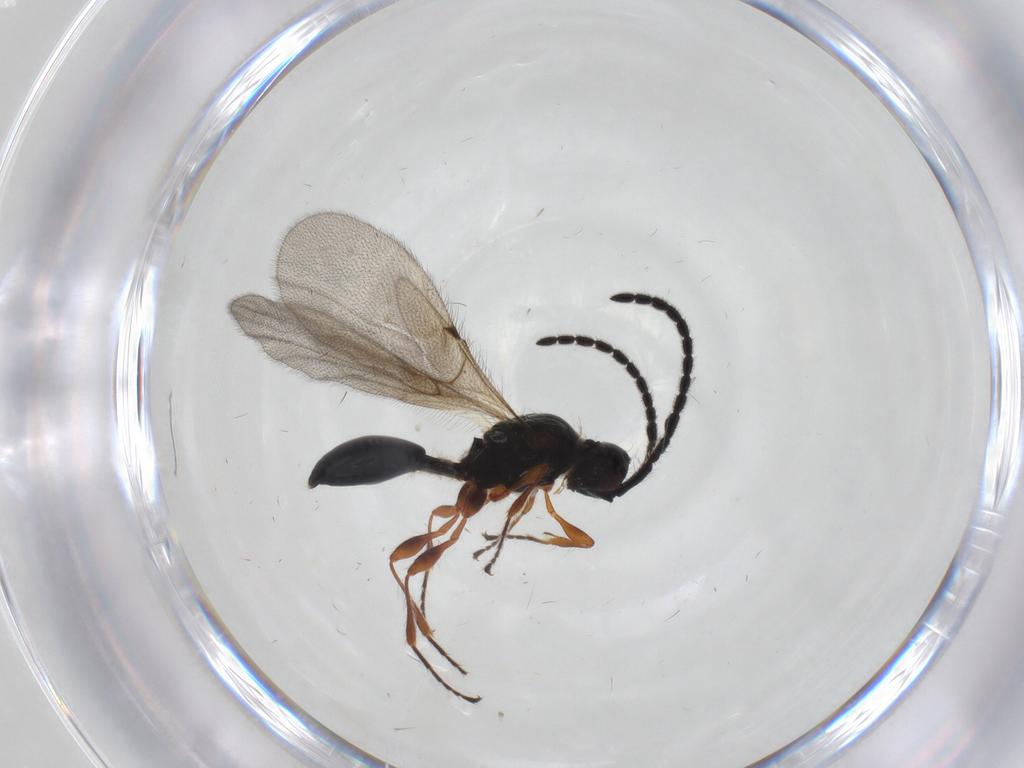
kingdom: Animalia
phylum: Arthropoda
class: Insecta
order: Hymenoptera
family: Diapriidae
